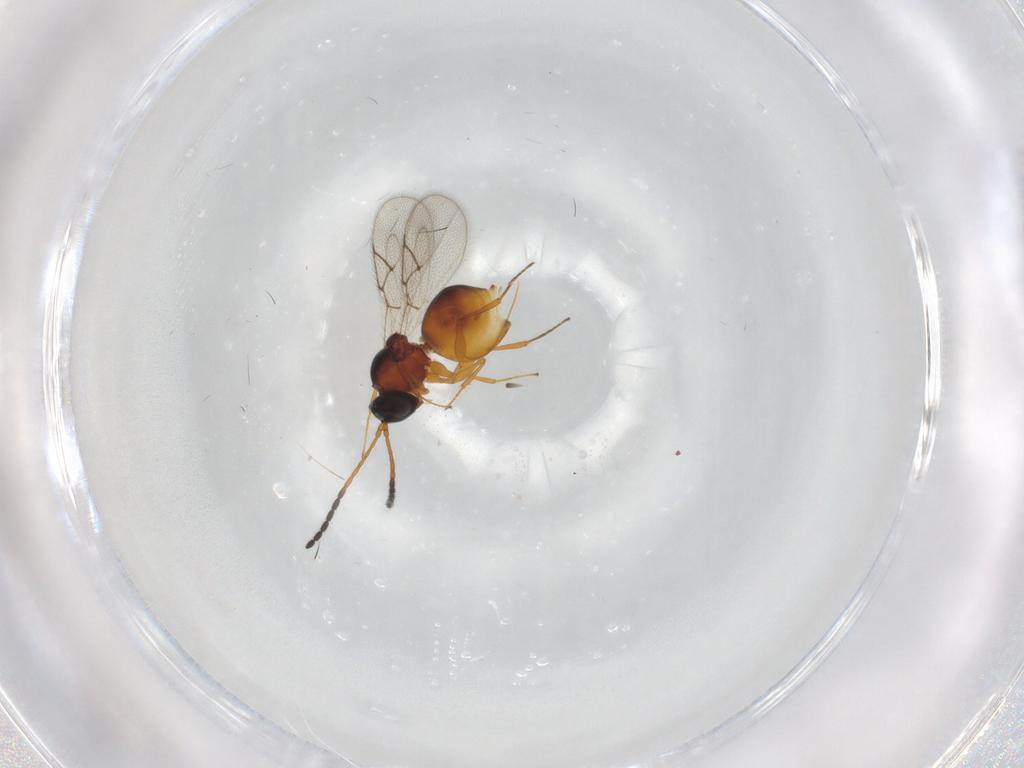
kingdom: Animalia
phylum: Arthropoda
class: Insecta
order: Hymenoptera
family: Figitidae
